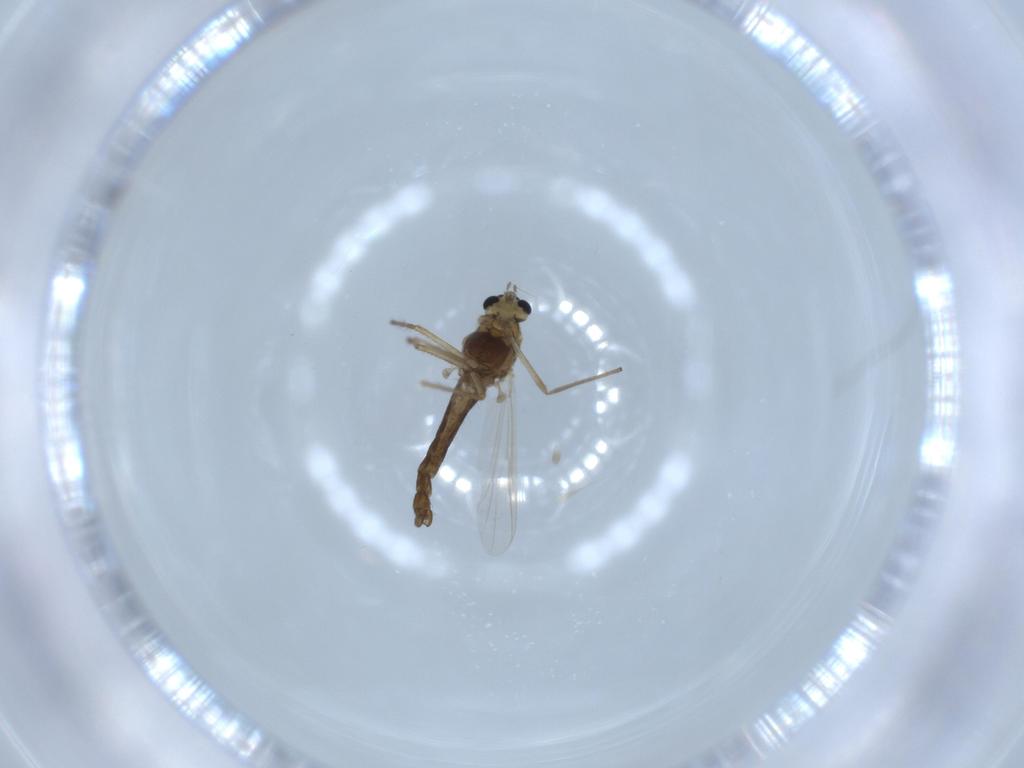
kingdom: Animalia
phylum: Arthropoda
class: Insecta
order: Diptera
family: Chironomidae
